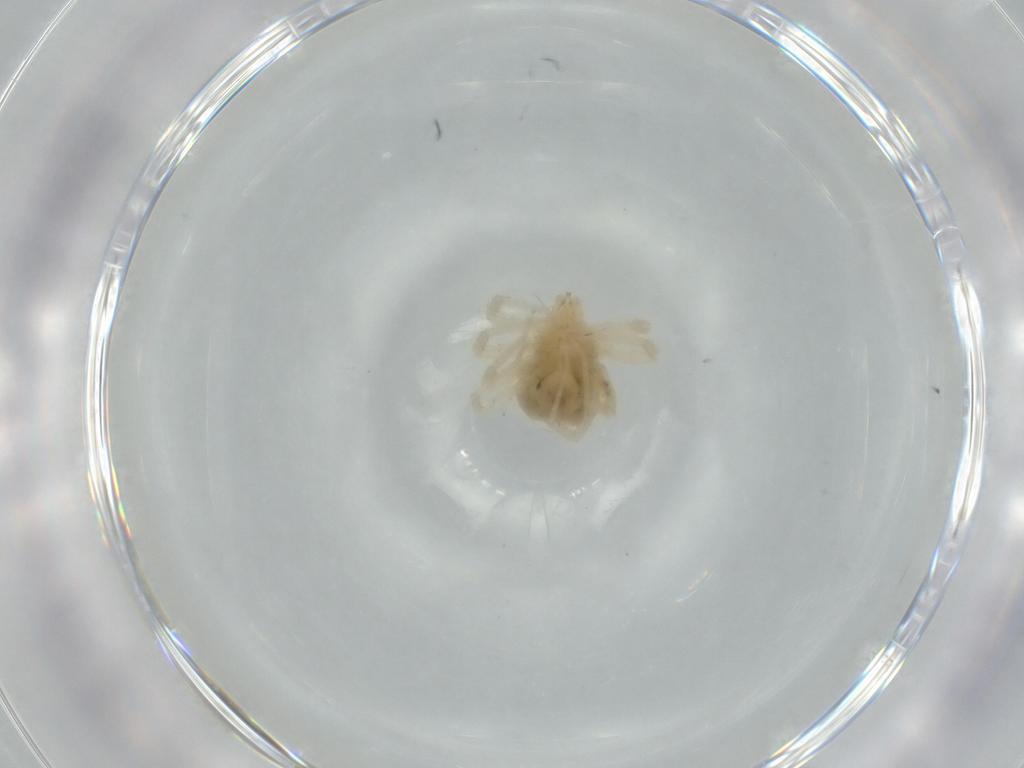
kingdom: Animalia
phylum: Arthropoda
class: Arachnida
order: Trombidiformes
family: Anystidae
